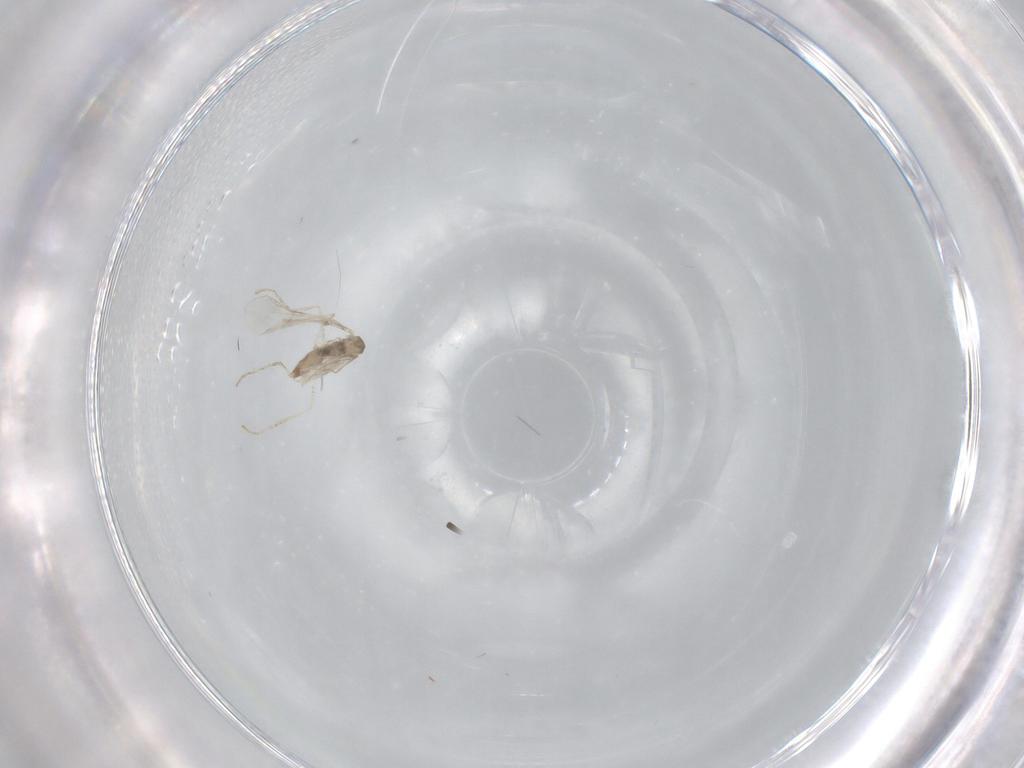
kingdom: Animalia
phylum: Arthropoda
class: Insecta
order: Diptera
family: Cecidomyiidae
